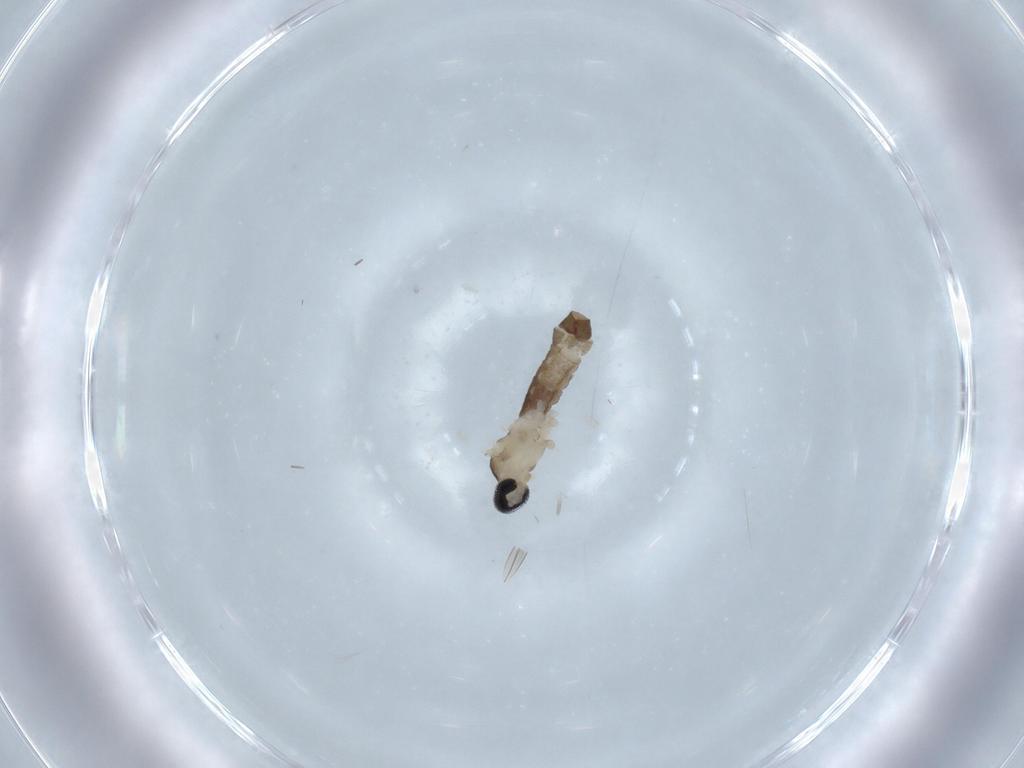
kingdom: Animalia
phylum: Arthropoda
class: Insecta
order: Diptera
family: Cecidomyiidae
